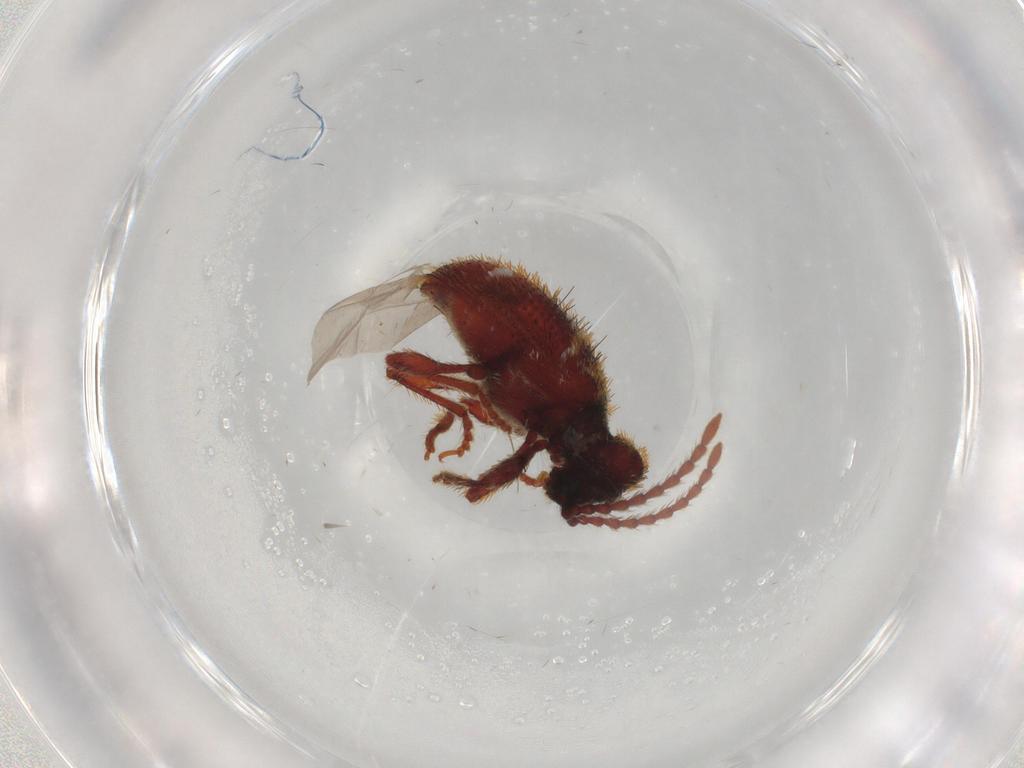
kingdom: Animalia
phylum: Arthropoda
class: Insecta
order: Coleoptera
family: Ptinidae
